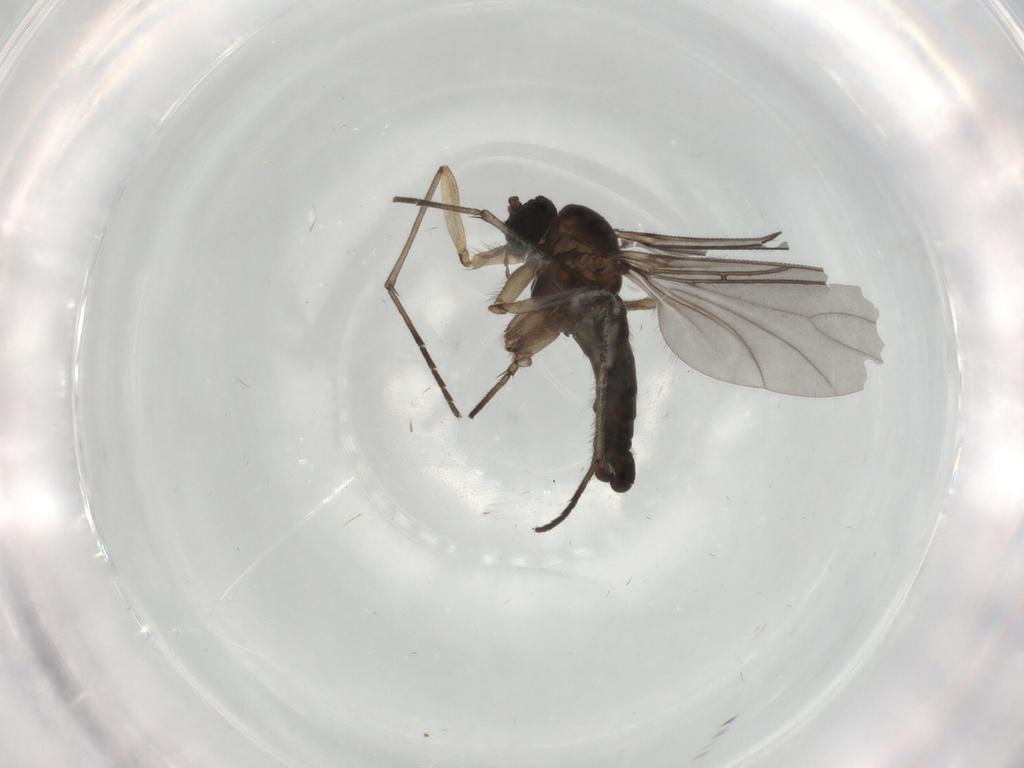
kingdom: Animalia
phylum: Arthropoda
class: Insecta
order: Diptera
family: Sciaridae
